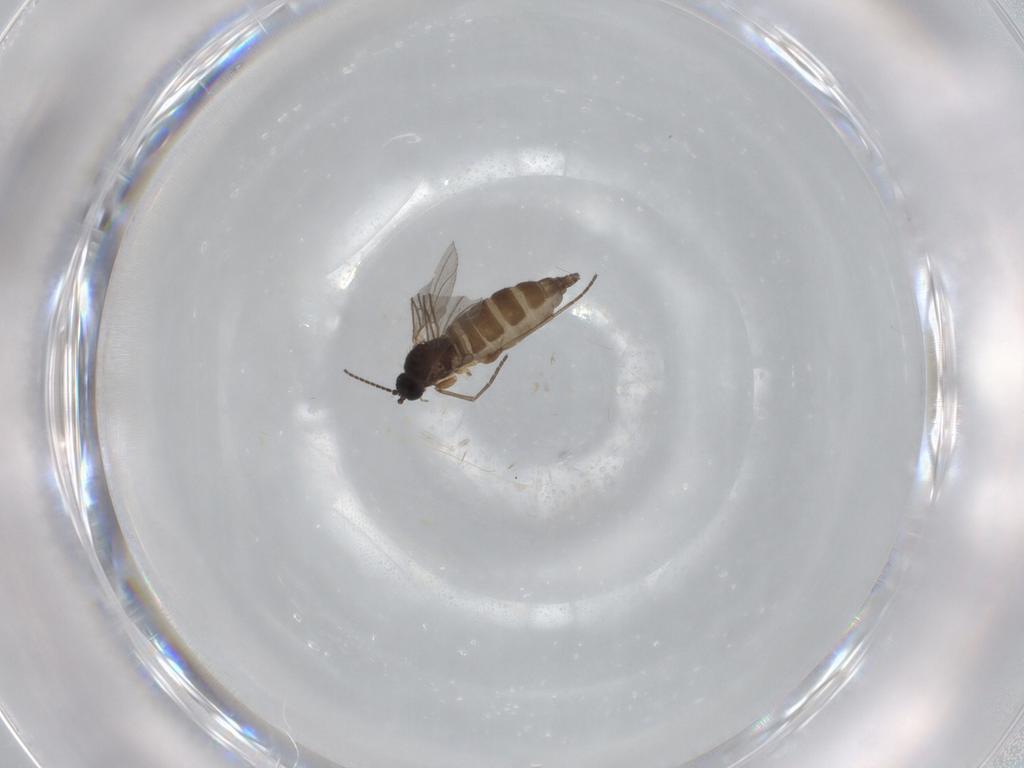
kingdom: Animalia
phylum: Arthropoda
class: Insecta
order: Diptera
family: Cecidomyiidae
